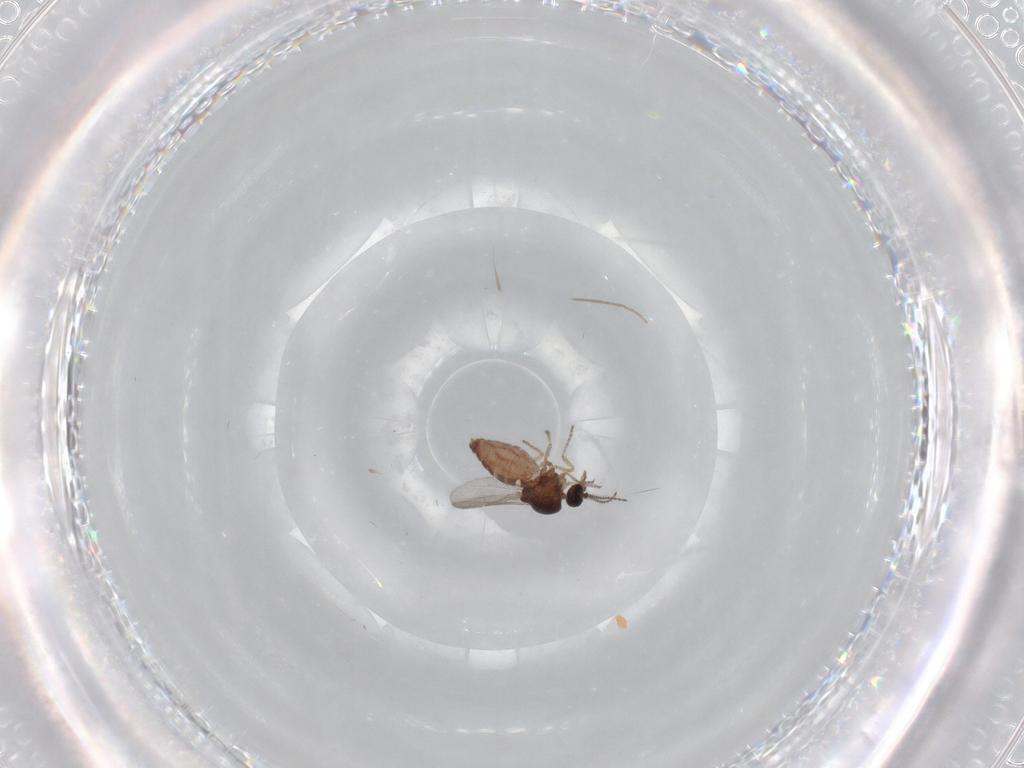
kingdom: Animalia
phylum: Arthropoda
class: Insecta
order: Diptera
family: Ceratopogonidae
